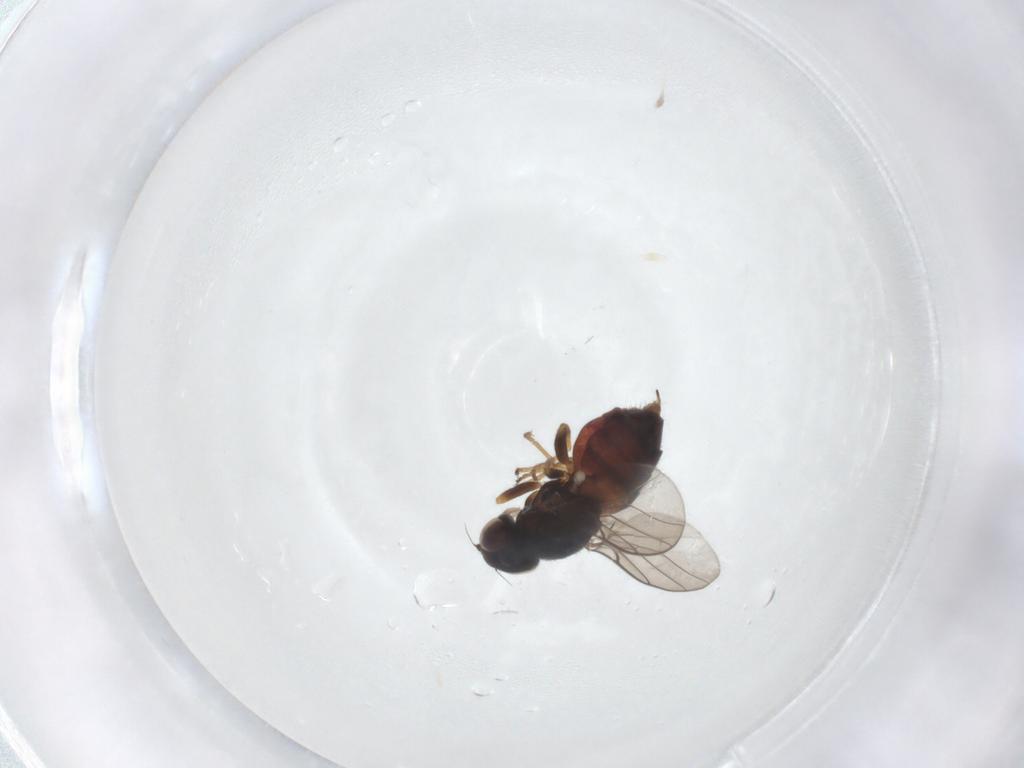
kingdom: Animalia
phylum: Arthropoda
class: Insecta
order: Diptera
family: Chloropidae
